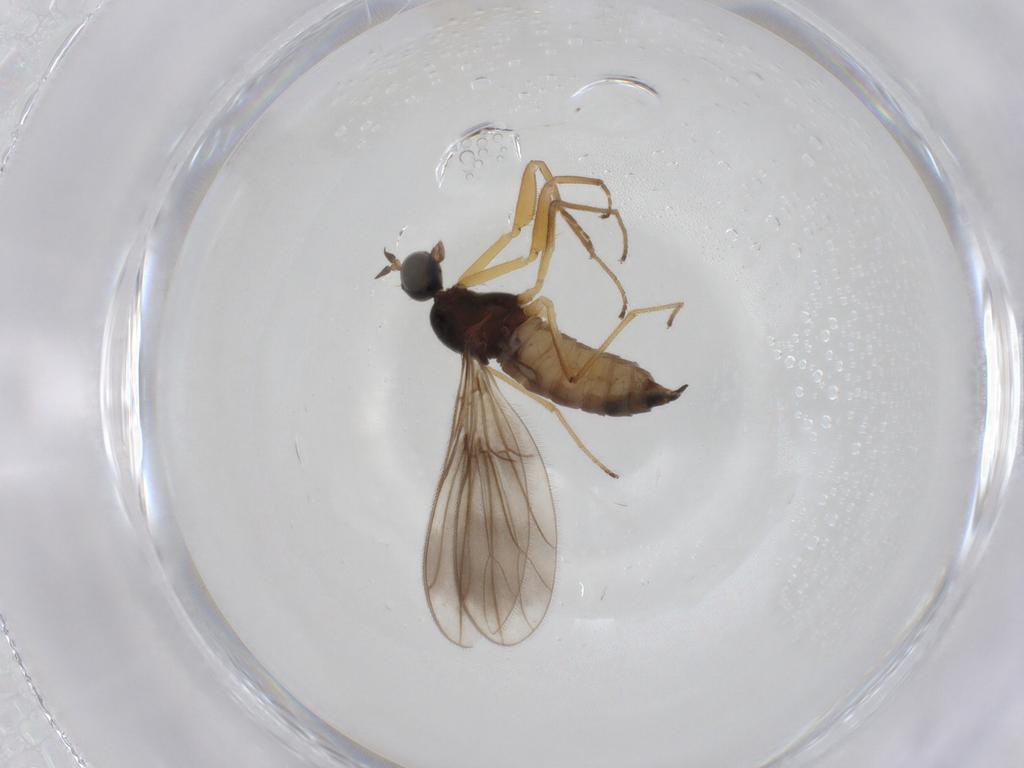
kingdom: Animalia
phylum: Arthropoda
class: Insecta
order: Diptera
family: Empididae
